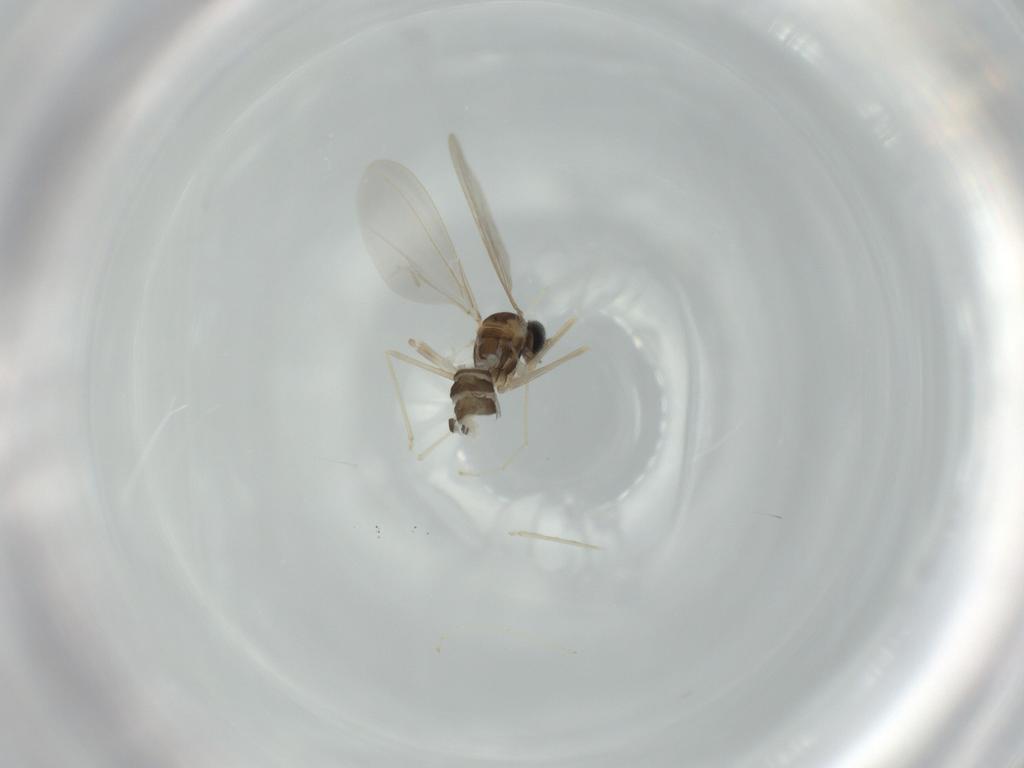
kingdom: Animalia
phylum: Arthropoda
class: Insecta
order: Diptera
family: Cecidomyiidae
